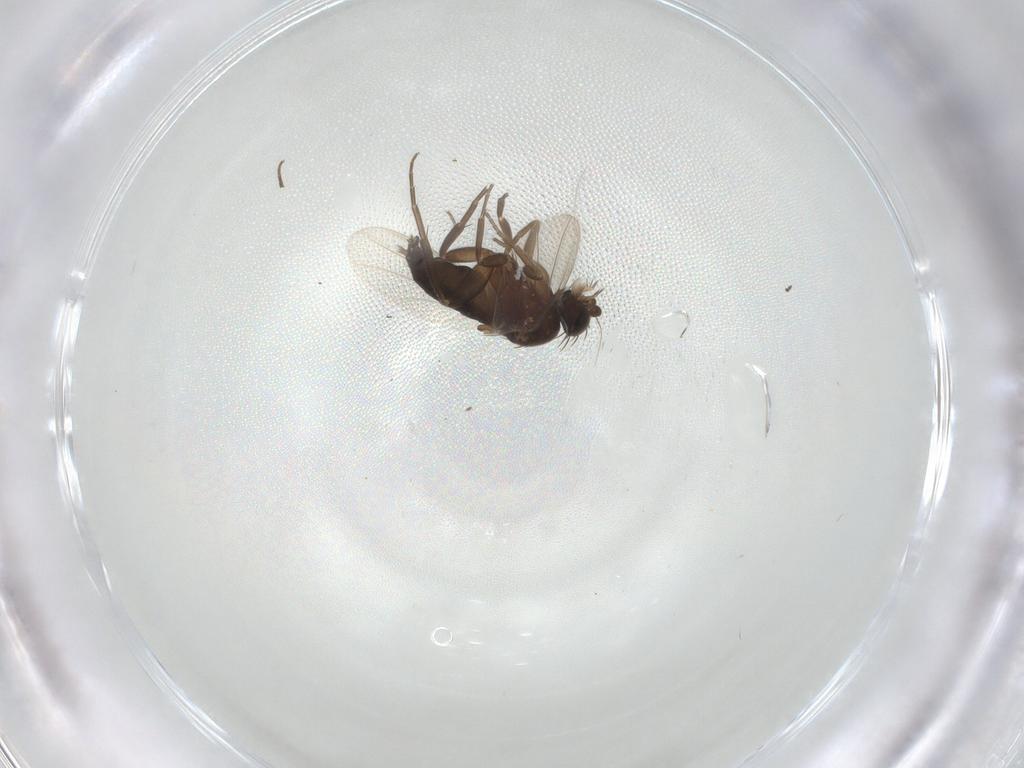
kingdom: Animalia
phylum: Arthropoda
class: Insecta
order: Diptera
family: Phoridae
